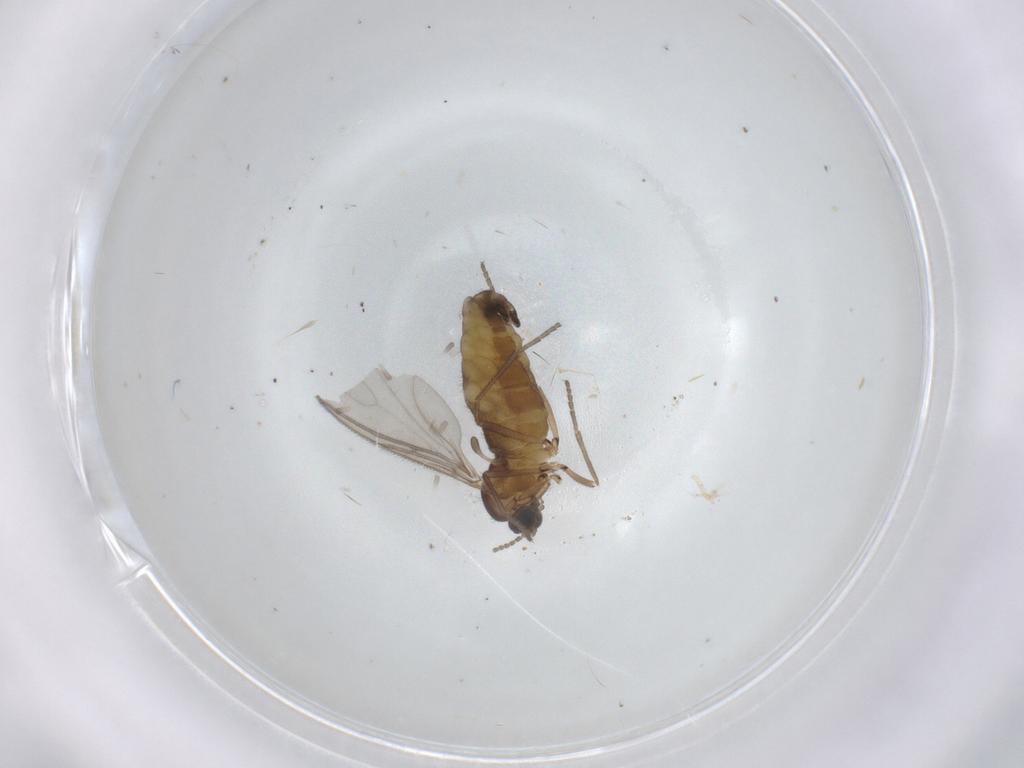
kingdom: Animalia
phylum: Arthropoda
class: Insecta
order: Diptera
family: Sciaridae
